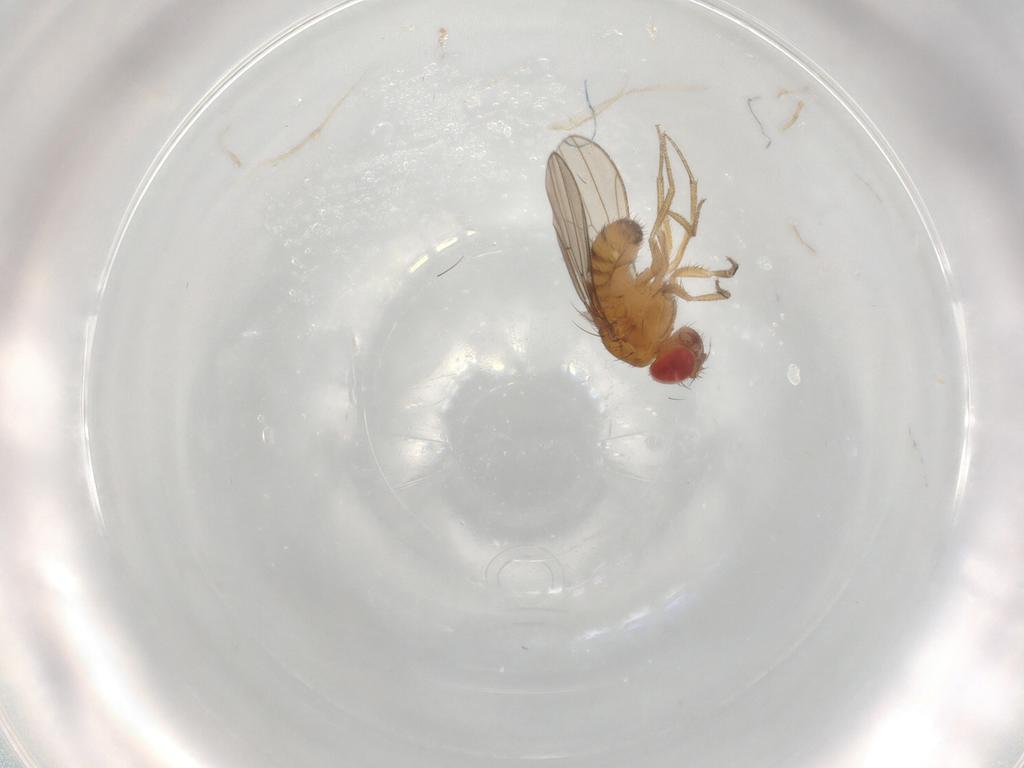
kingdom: Animalia
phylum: Arthropoda
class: Insecta
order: Diptera
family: Drosophilidae
